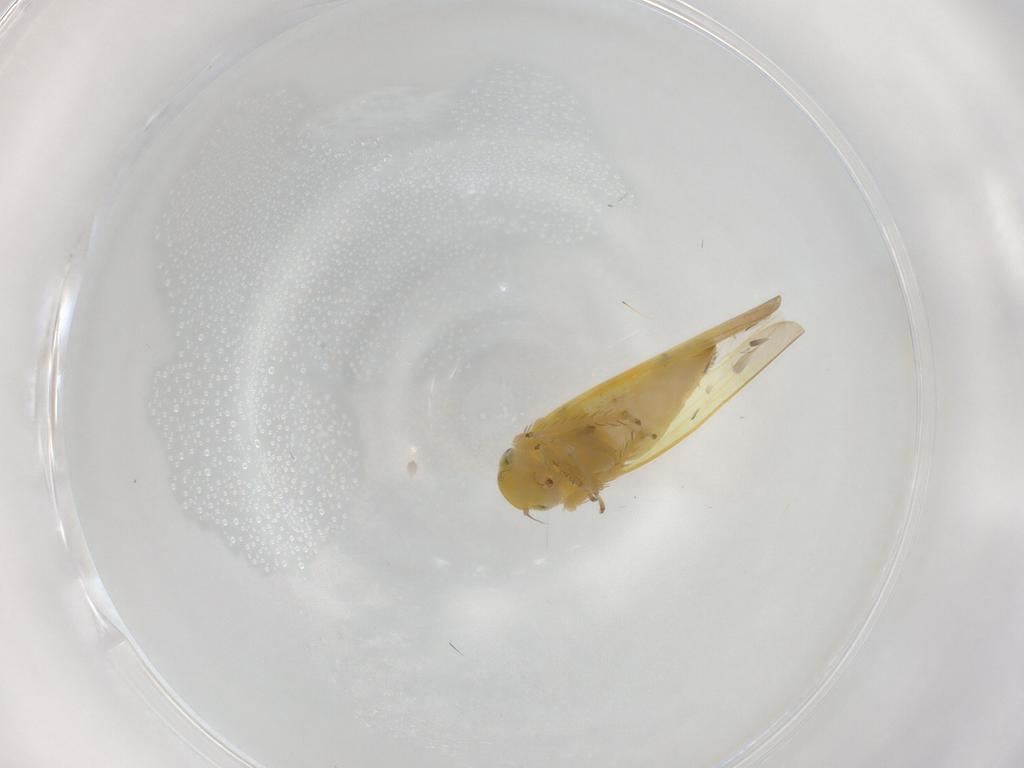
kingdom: Animalia
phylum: Arthropoda
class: Insecta
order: Hemiptera
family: Cicadellidae
